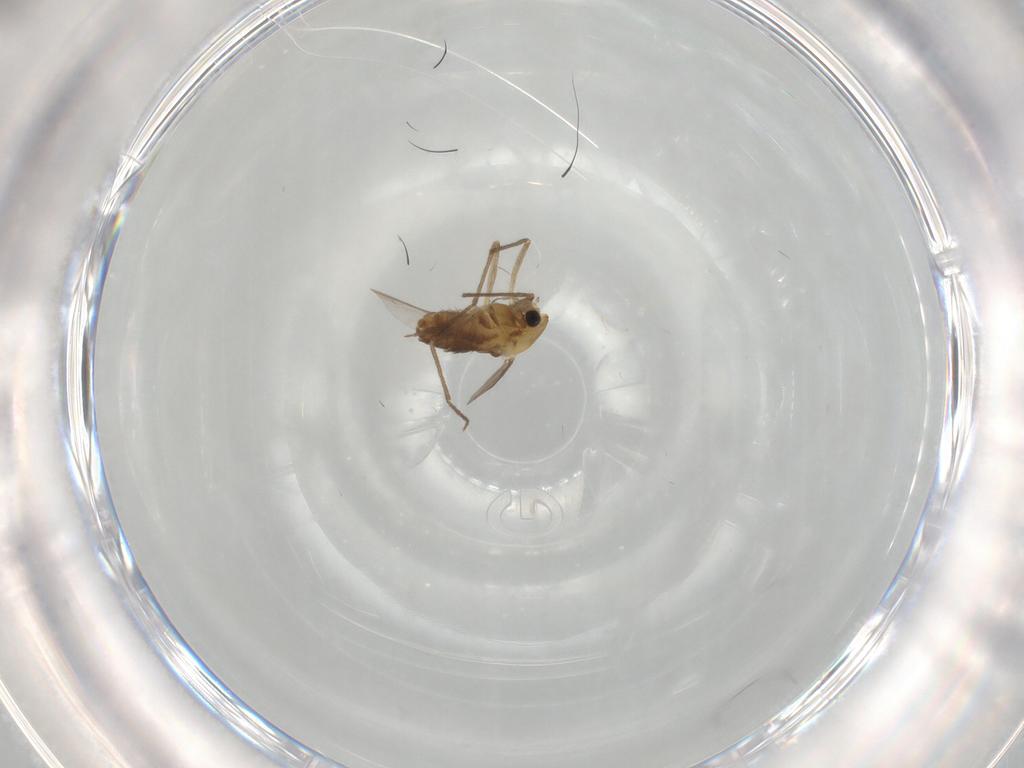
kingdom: Animalia
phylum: Arthropoda
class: Insecta
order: Diptera
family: Chironomidae
